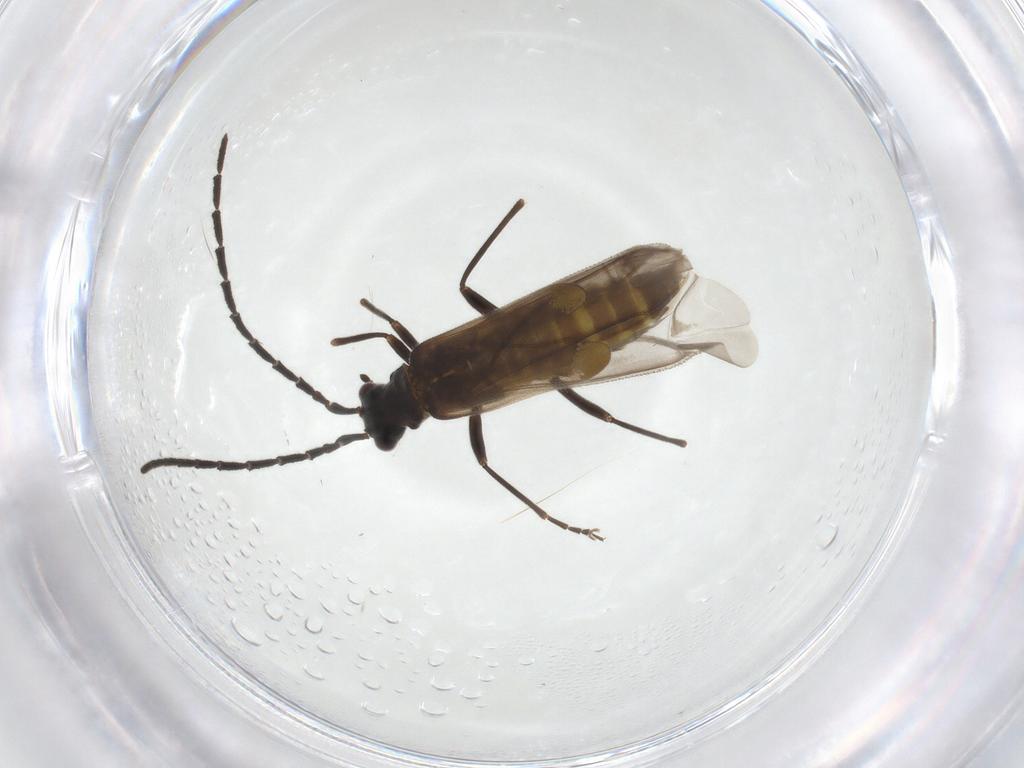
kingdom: Animalia
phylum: Arthropoda
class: Insecta
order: Coleoptera
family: Cantharidae
